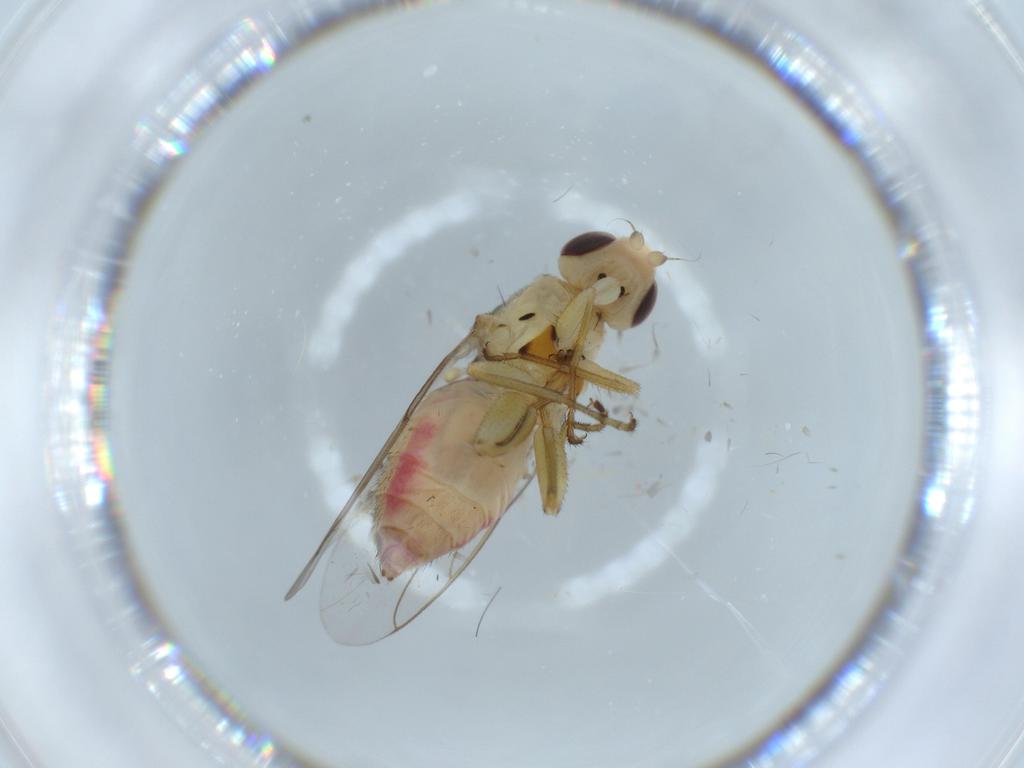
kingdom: Animalia
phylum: Arthropoda
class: Insecta
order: Diptera
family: Chloropidae
